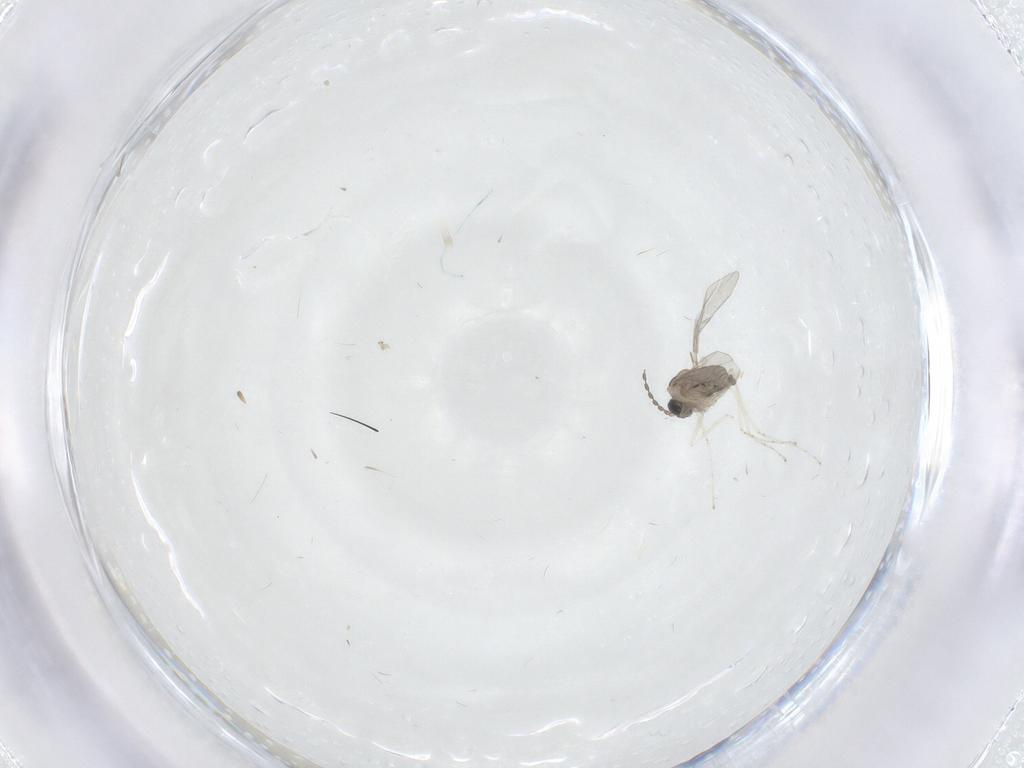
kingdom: Animalia
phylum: Arthropoda
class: Insecta
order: Diptera
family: Cecidomyiidae
